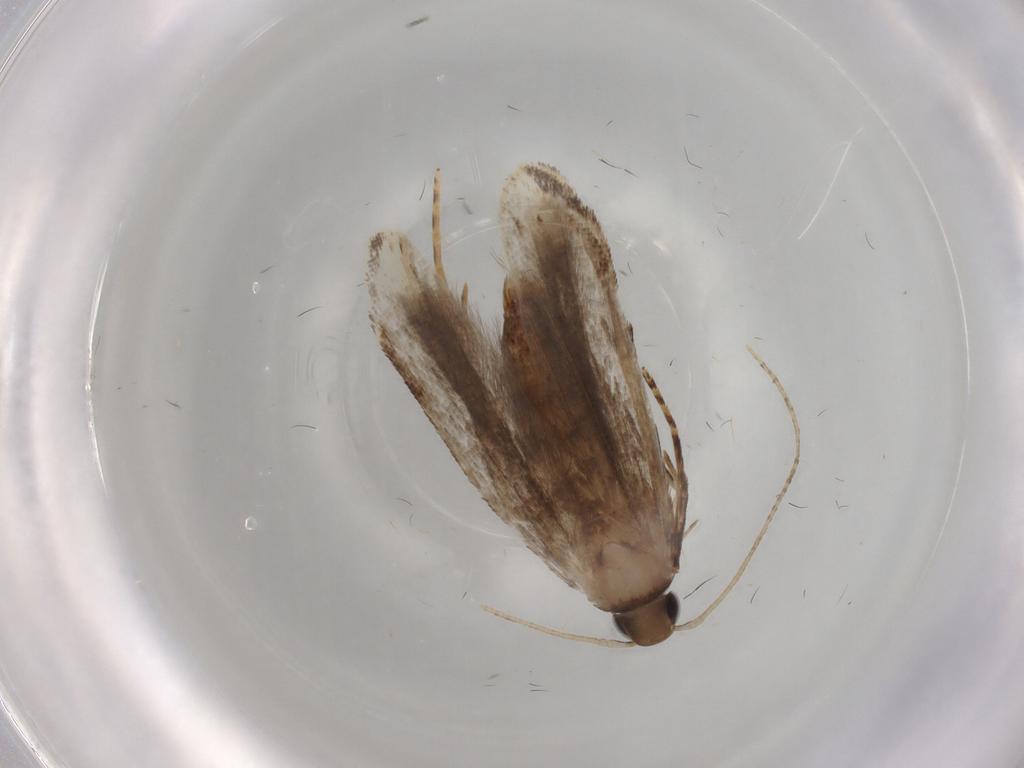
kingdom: Animalia
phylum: Arthropoda
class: Insecta
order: Lepidoptera
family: Gelechiidae
